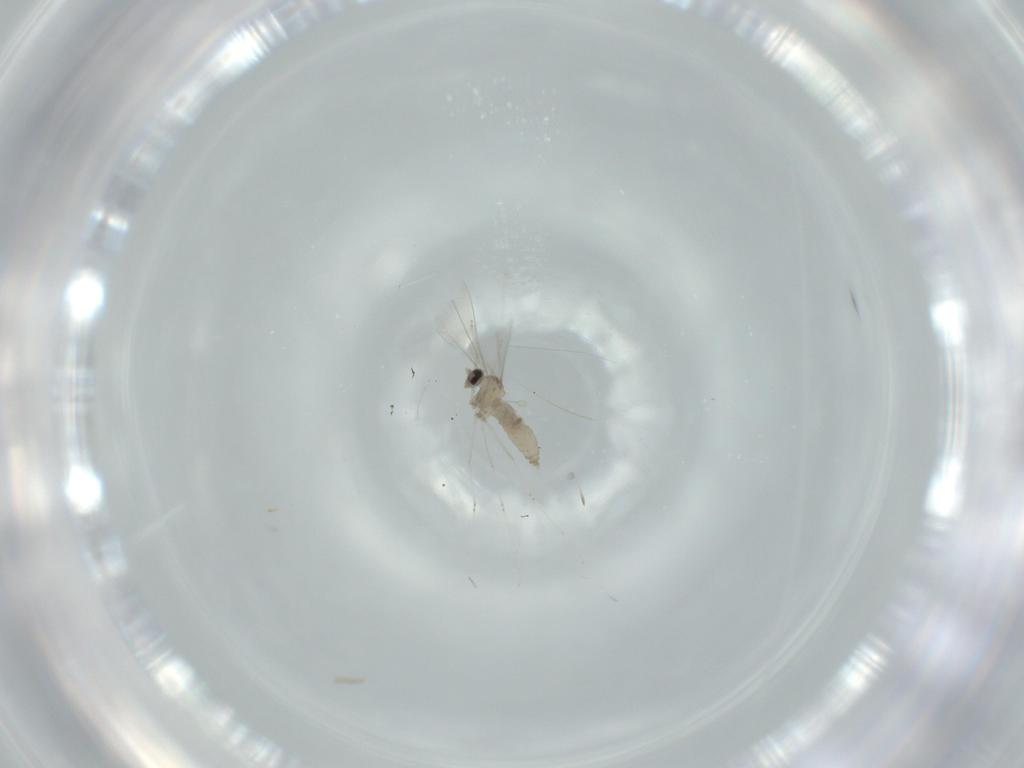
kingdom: Animalia
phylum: Arthropoda
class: Insecta
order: Diptera
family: Cecidomyiidae
